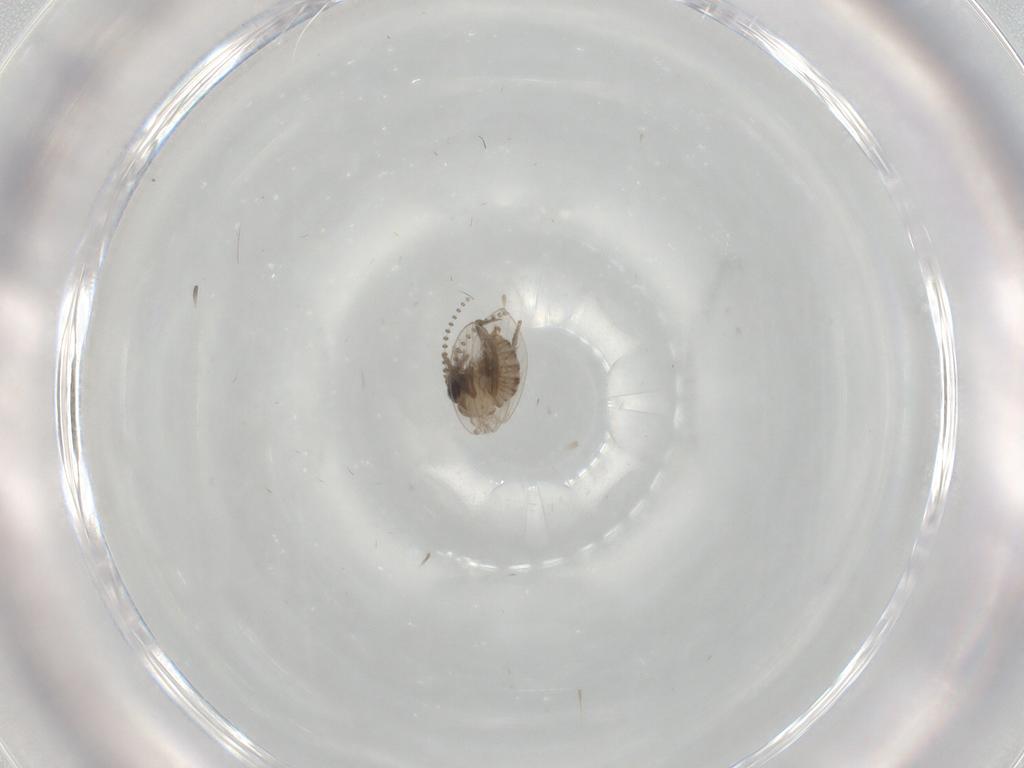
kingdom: Animalia
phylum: Arthropoda
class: Insecta
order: Diptera
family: Psychodidae
